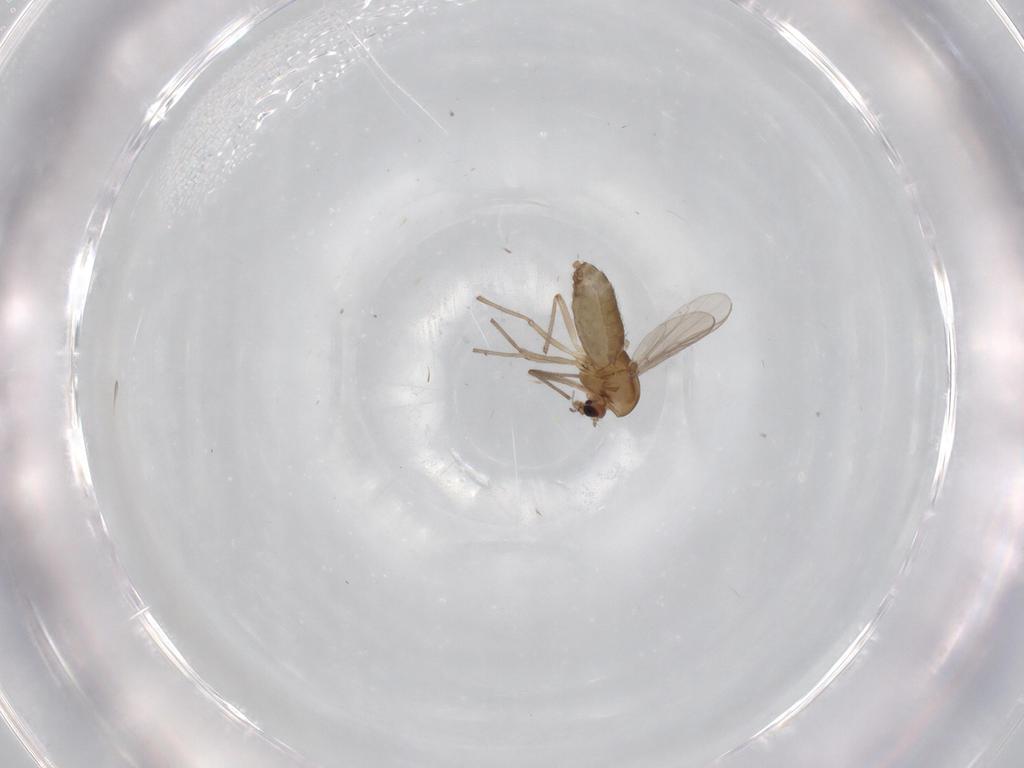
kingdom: Animalia
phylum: Arthropoda
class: Insecta
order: Diptera
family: Chironomidae
